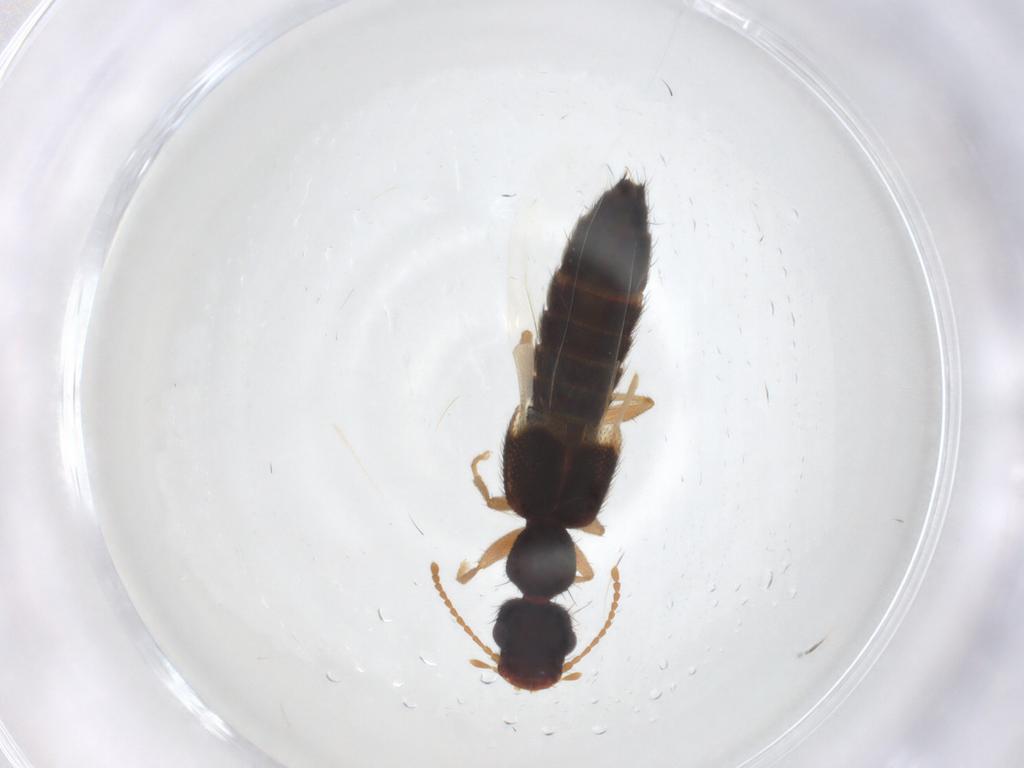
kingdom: Animalia
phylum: Arthropoda
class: Insecta
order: Coleoptera
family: Staphylinidae
